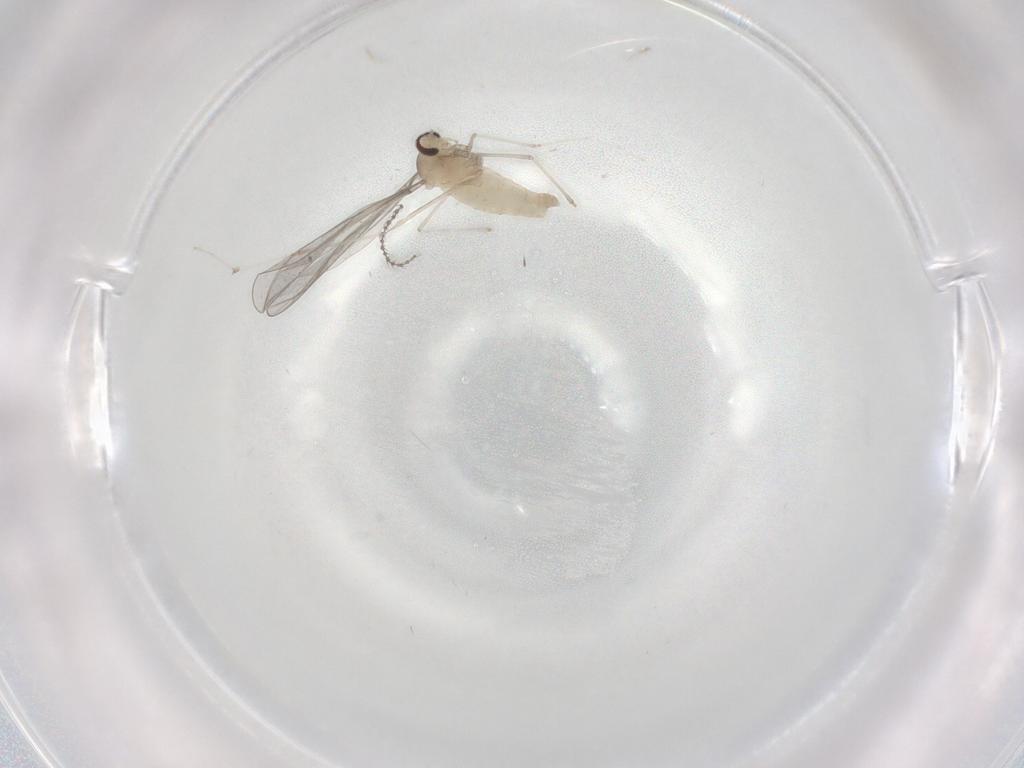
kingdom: Animalia
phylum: Arthropoda
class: Insecta
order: Diptera
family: Cecidomyiidae
